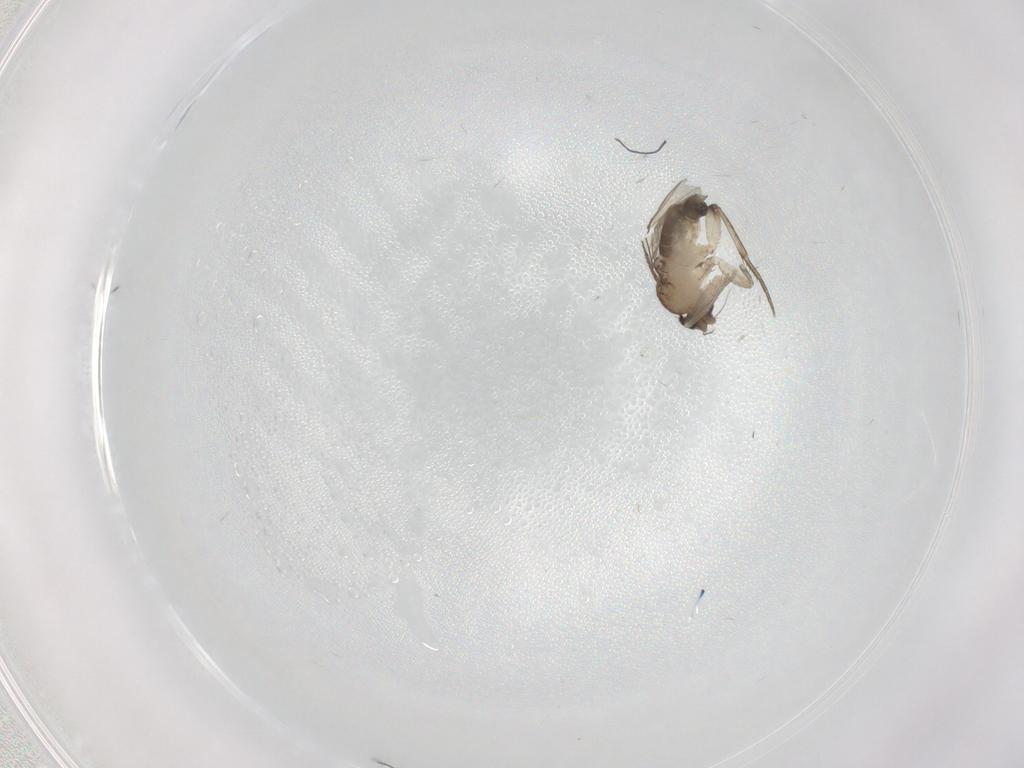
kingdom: Animalia
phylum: Arthropoda
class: Insecta
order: Diptera
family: Phoridae
